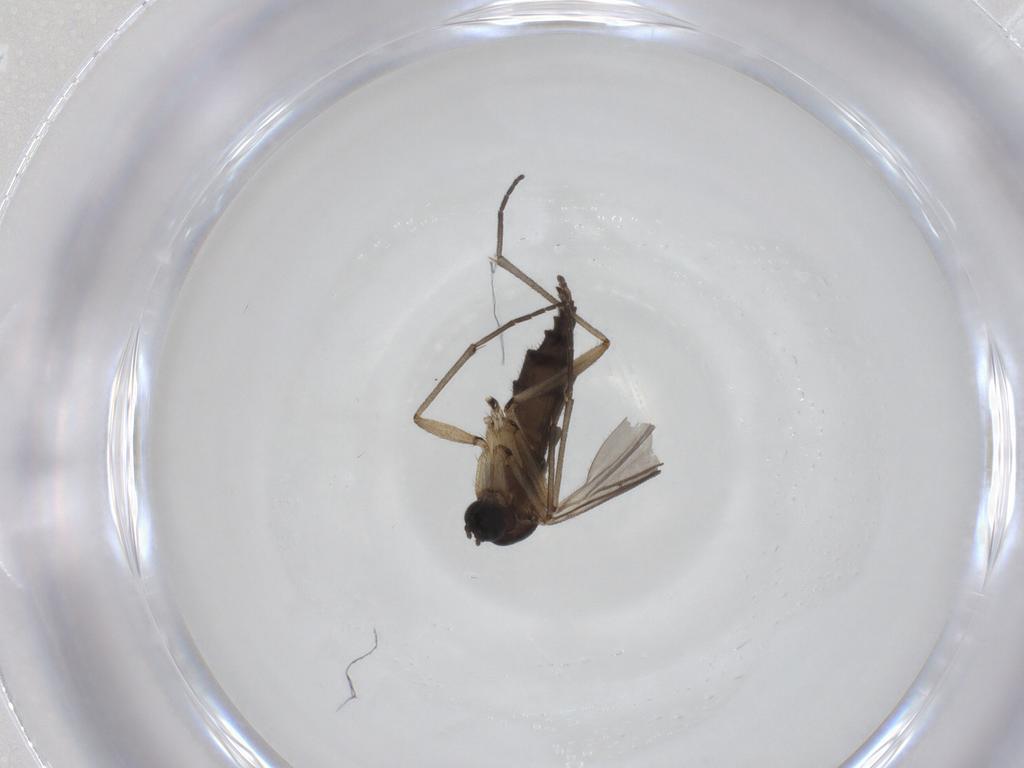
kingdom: Animalia
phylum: Arthropoda
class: Insecta
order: Diptera
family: Sciaridae
